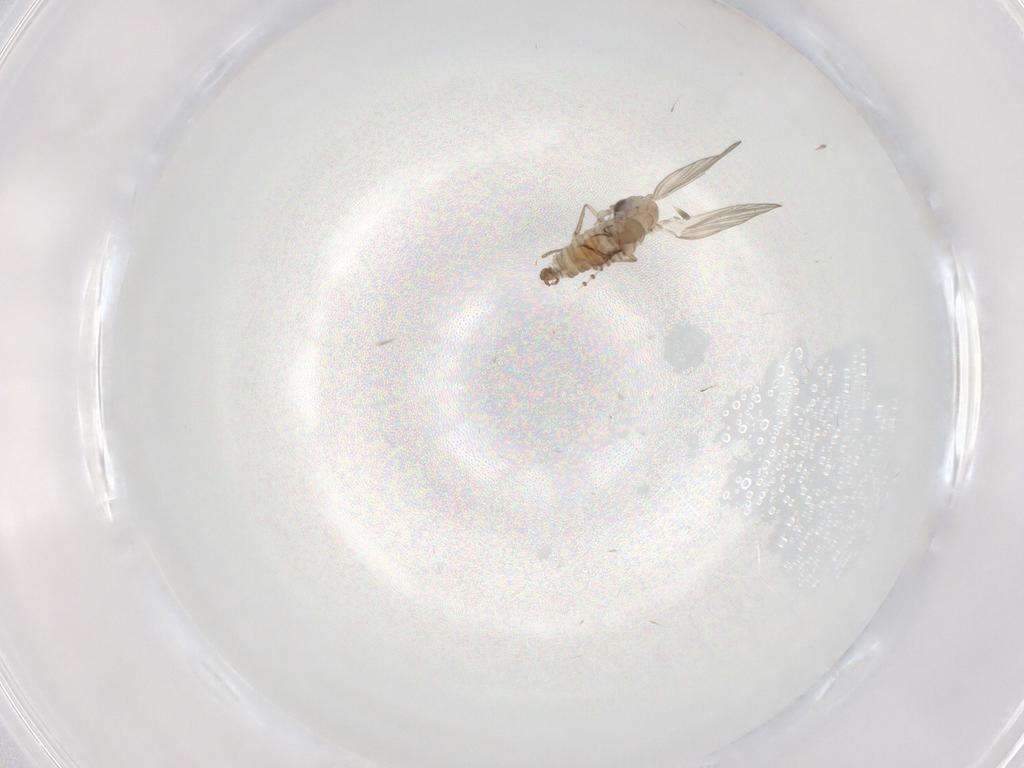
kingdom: Animalia
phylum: Arthropoda
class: Insecta
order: Diptera
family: Psychodidae
